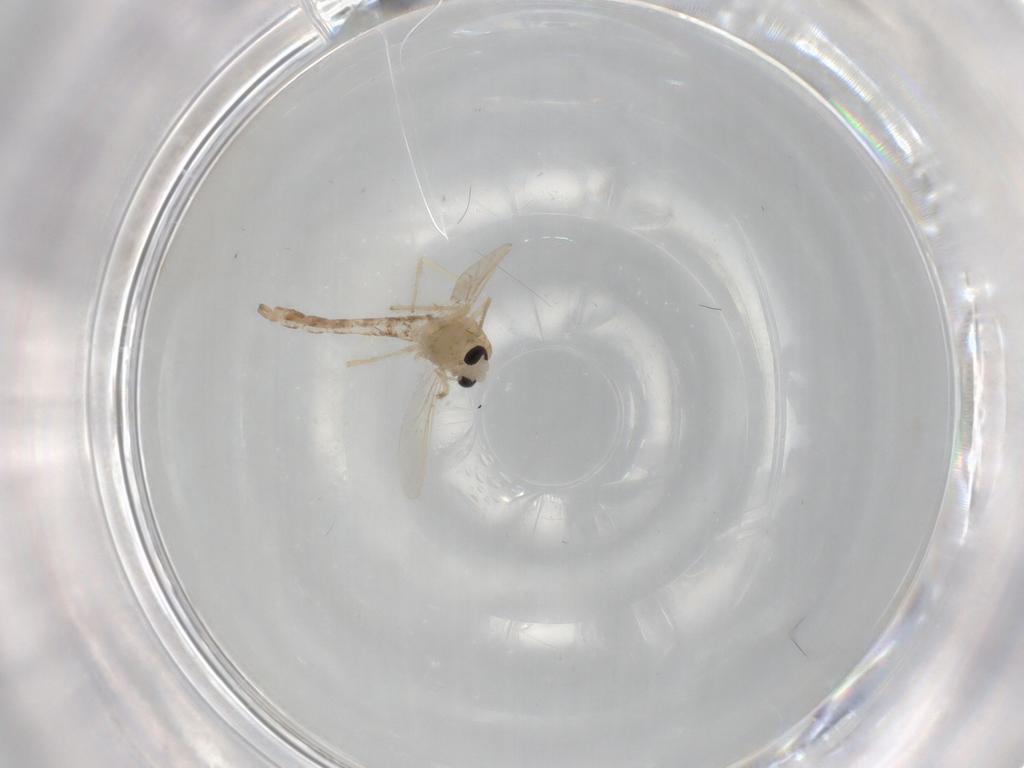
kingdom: Animalia
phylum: Arthropoda
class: Insecta
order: Diptera
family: Chironomidae
